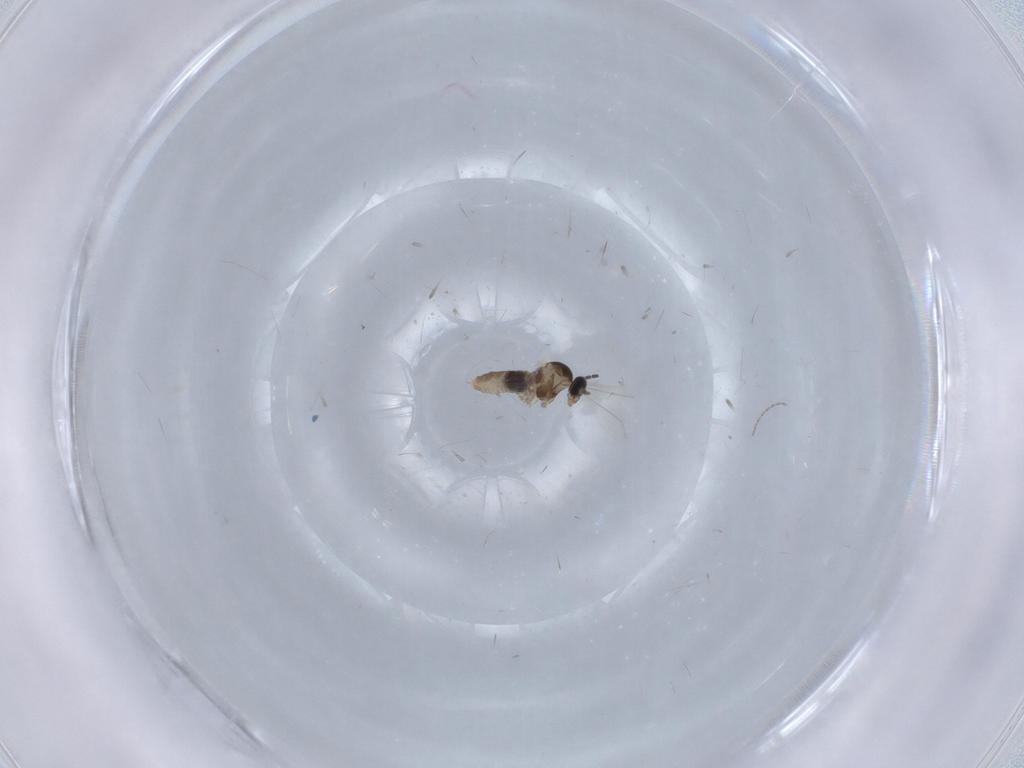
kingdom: Animalia
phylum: Arthropoda
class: Insecta
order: Diptera
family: Cecidomyiidae
